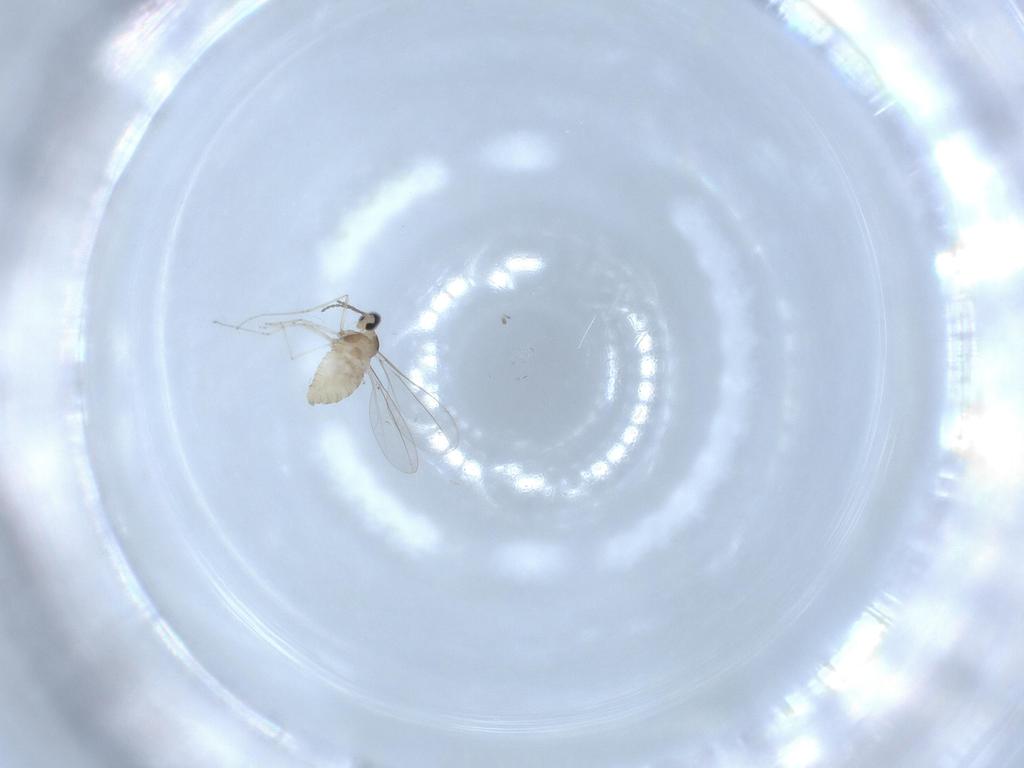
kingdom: Animalia
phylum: Arthropoda
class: Insecta
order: Diptera
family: Cecidomyiidae
